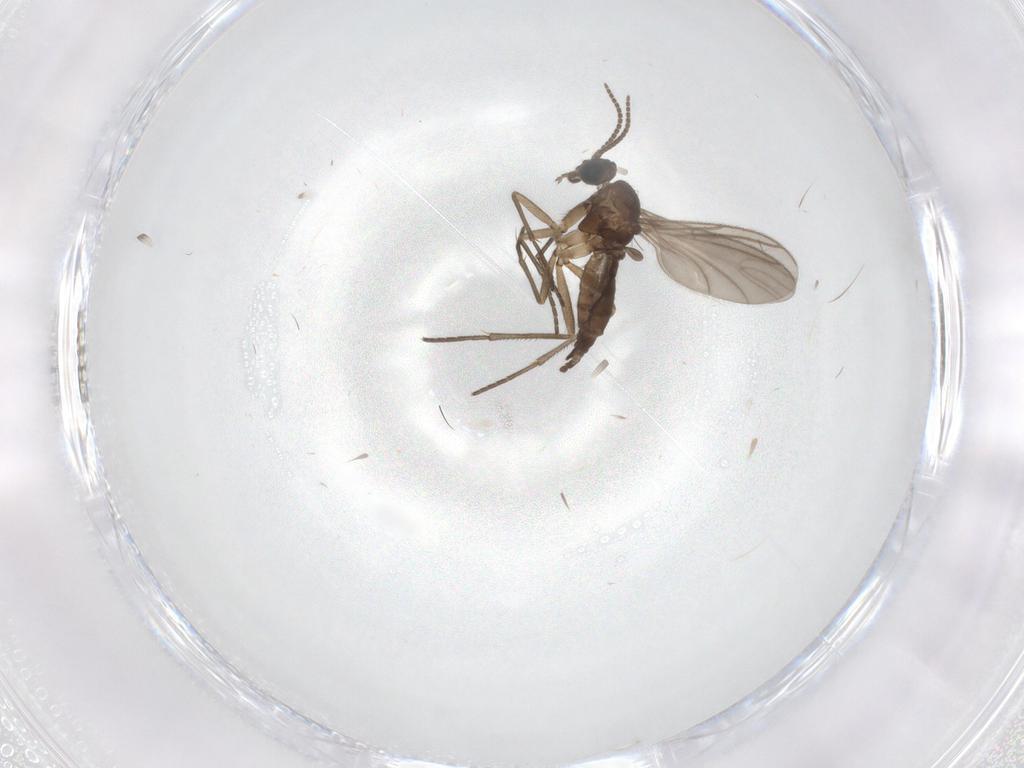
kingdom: Animalia
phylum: Arthropoda
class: Insecta
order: Diptera
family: Sciaridae
